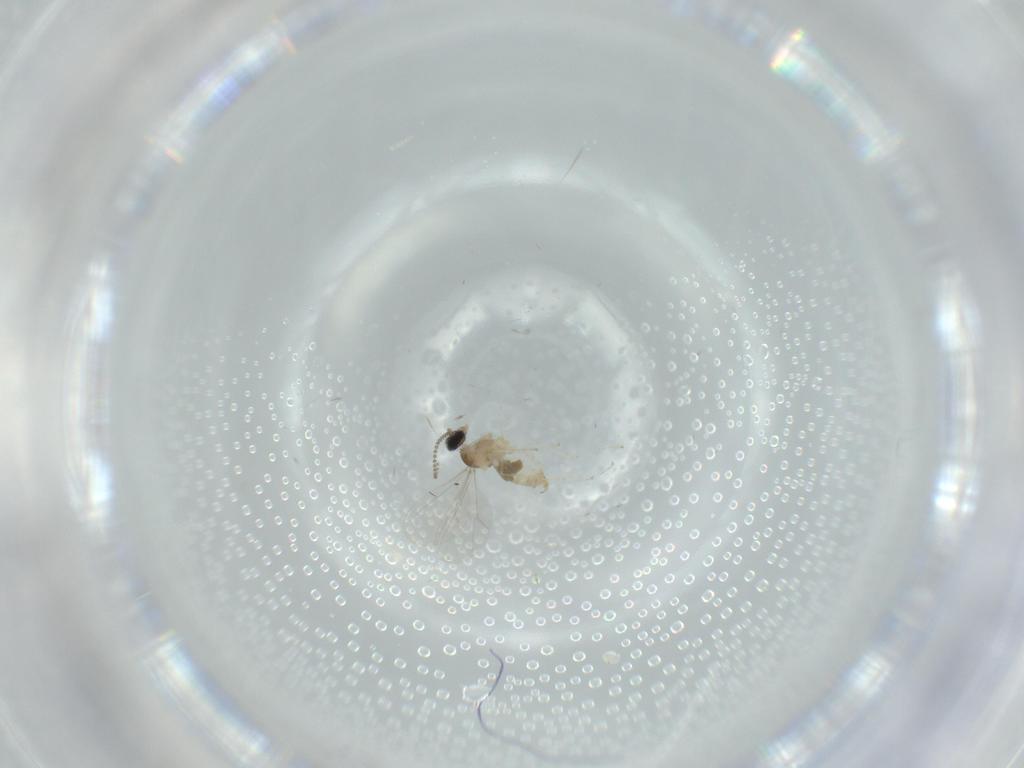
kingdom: Animalia
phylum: Arthropoda
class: Insecta
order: Diptera
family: Cecidomyiidae
